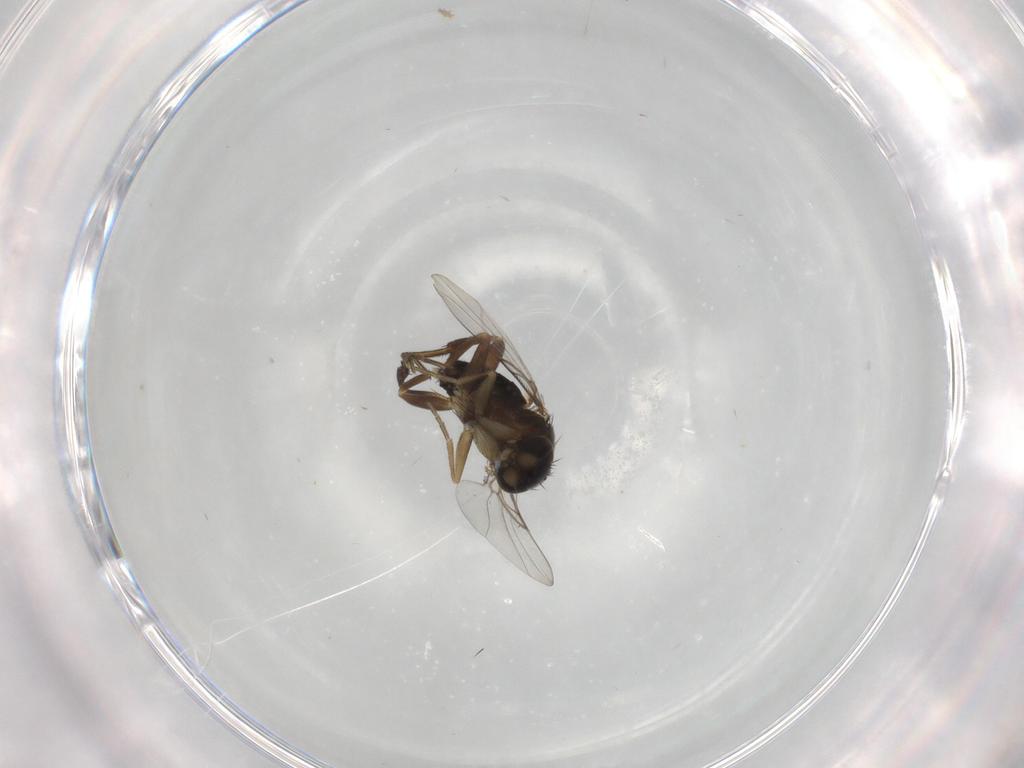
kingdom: Animalia
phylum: Arthropoda
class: Insecta
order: Diptera
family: Phoridae
